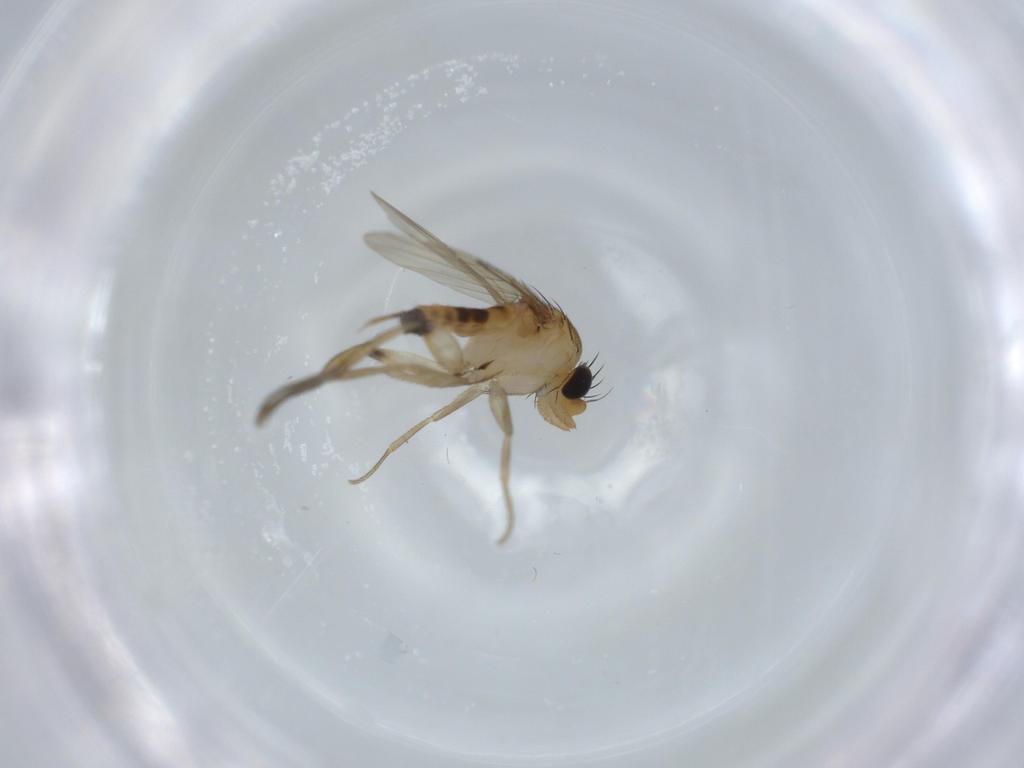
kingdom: Animalia
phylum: Arthropoda
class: Insecta
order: Diptera
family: Phoridae
